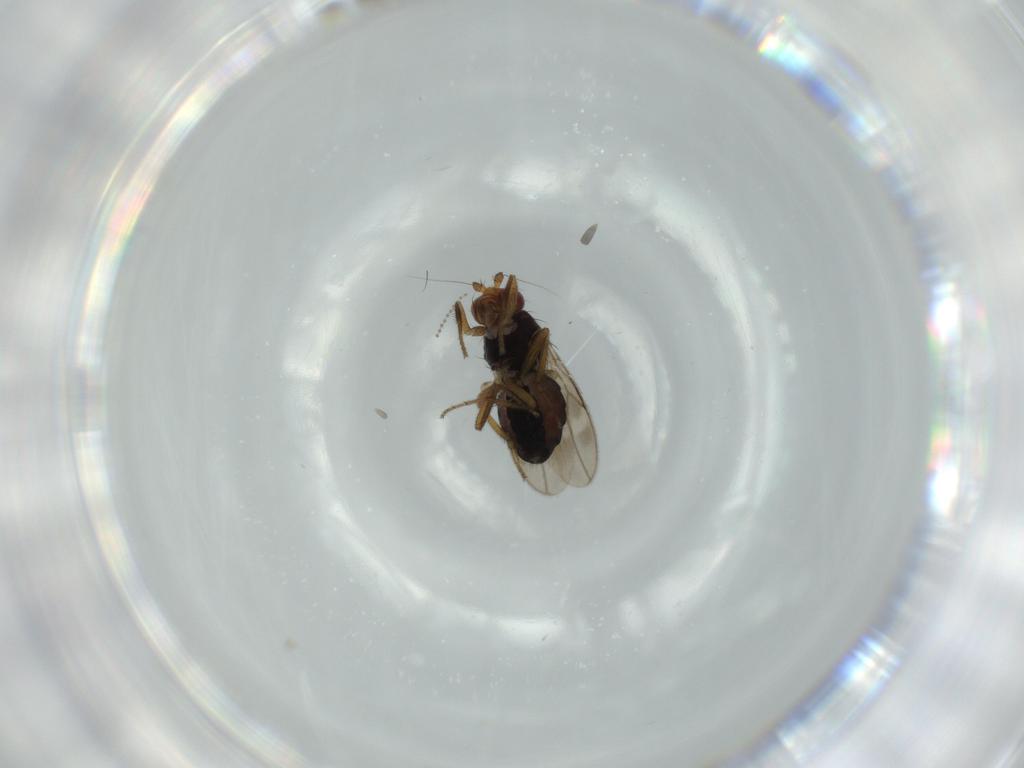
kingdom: Animalia
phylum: Arthropoda
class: Insecta
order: Diptera
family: Sphaeroceridae
